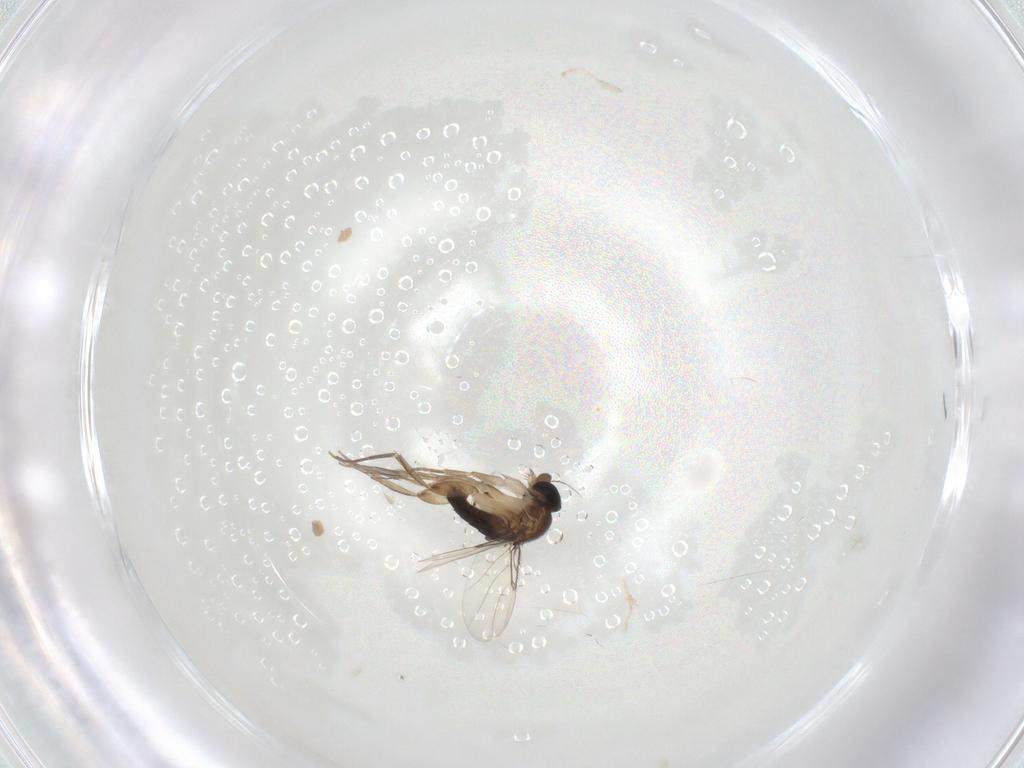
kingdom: Animalia
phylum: Arthropoda
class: Insecta
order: Diptera
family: Phoridae
